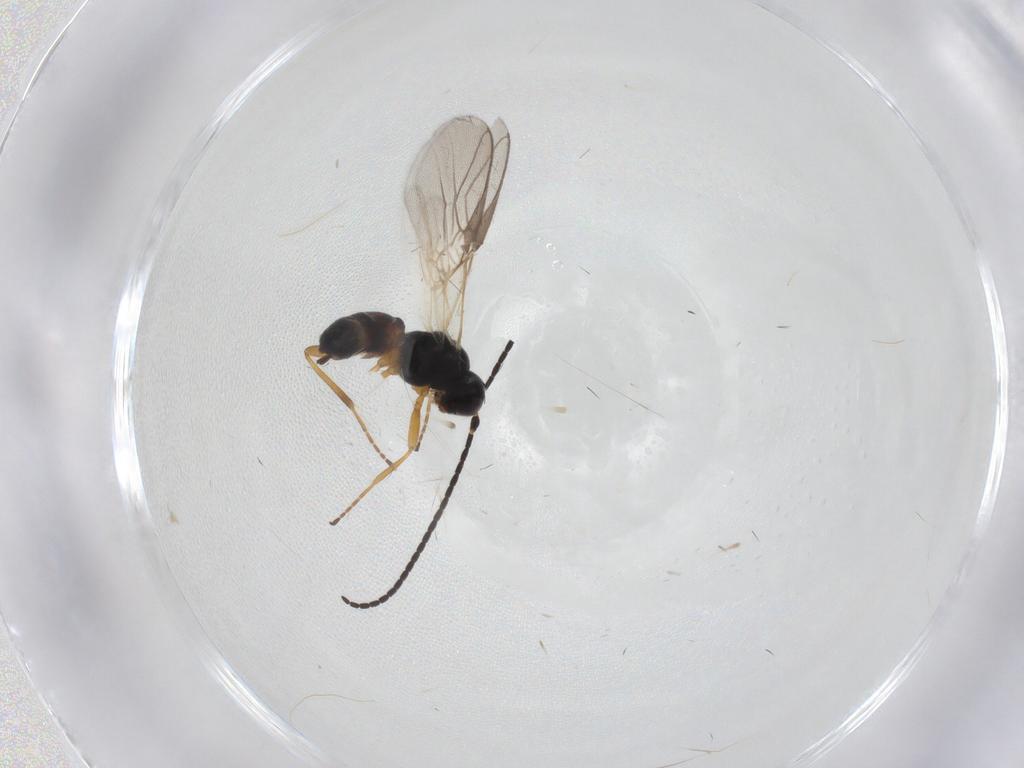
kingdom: Animalia
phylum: Arthropoda
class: Insecta
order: Hymenoptera
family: Braconidae
